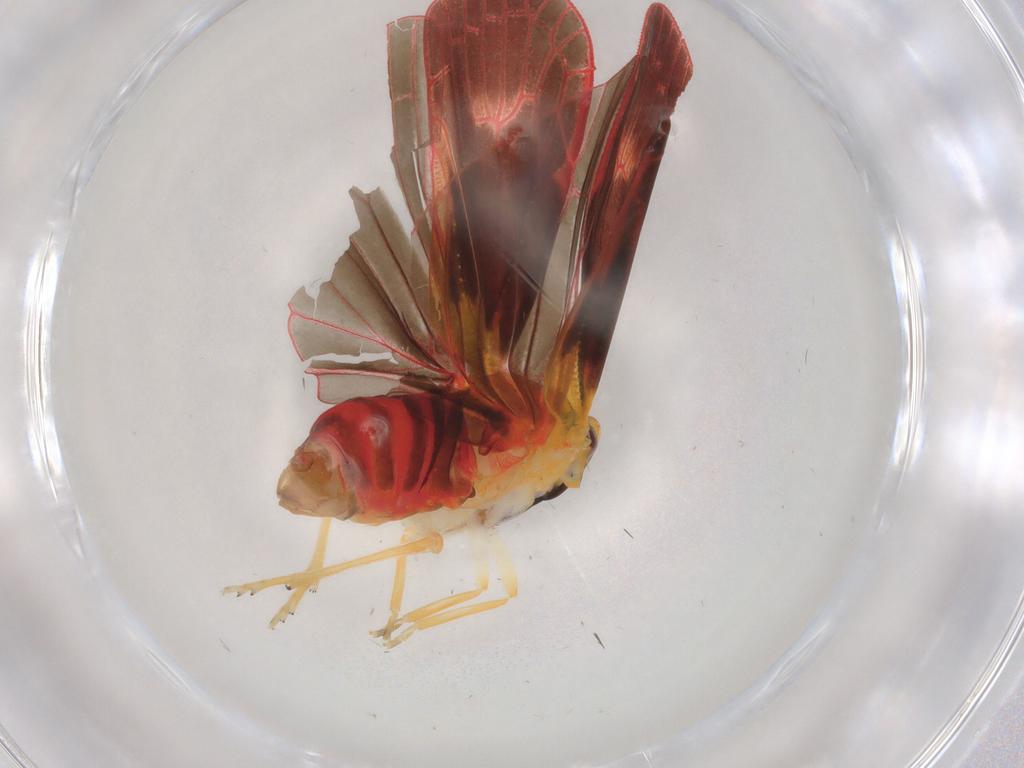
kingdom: Animalia
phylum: Arthropoda
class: Insecta
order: Hemiptera
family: Derbidae
